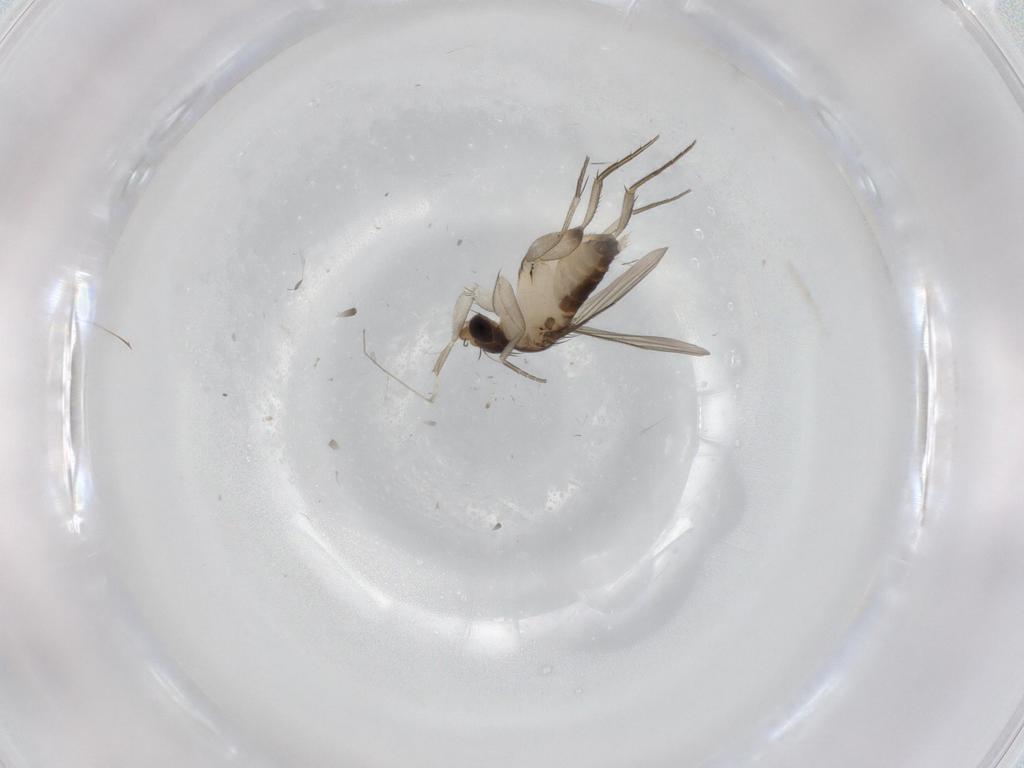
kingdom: Animalia
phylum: Arthropoda
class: Insecta
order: Diptera
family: Phoridae
